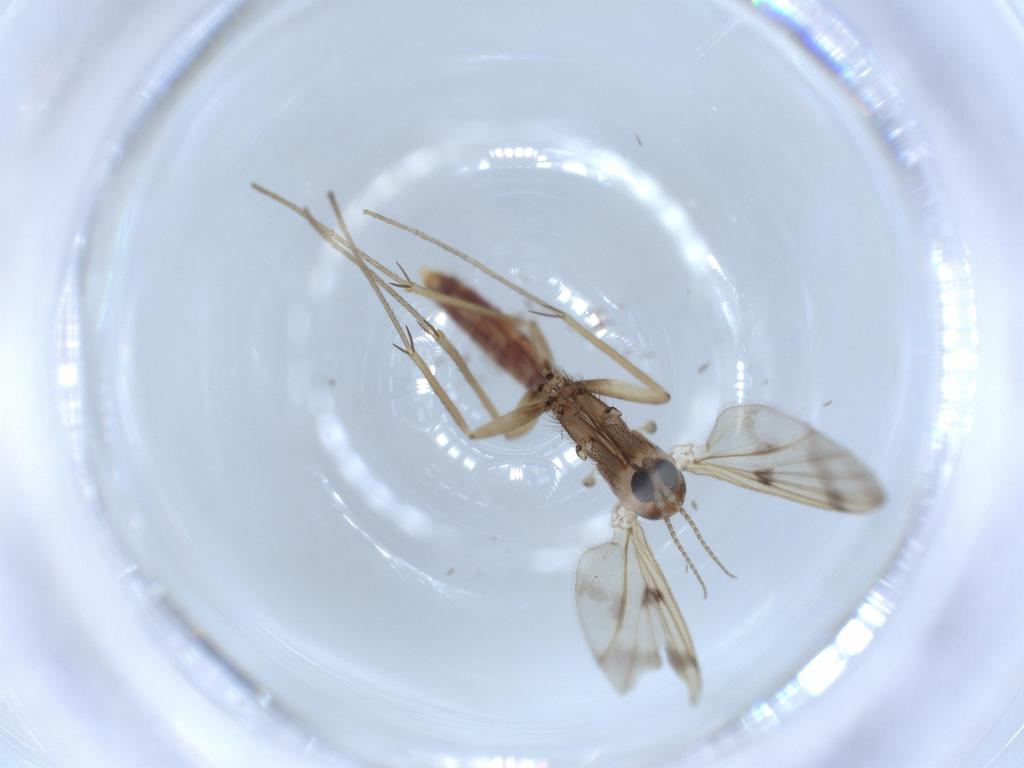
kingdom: Animalia
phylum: Arthropoda
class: Insecta
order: Diptera
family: Mycetophilidae
